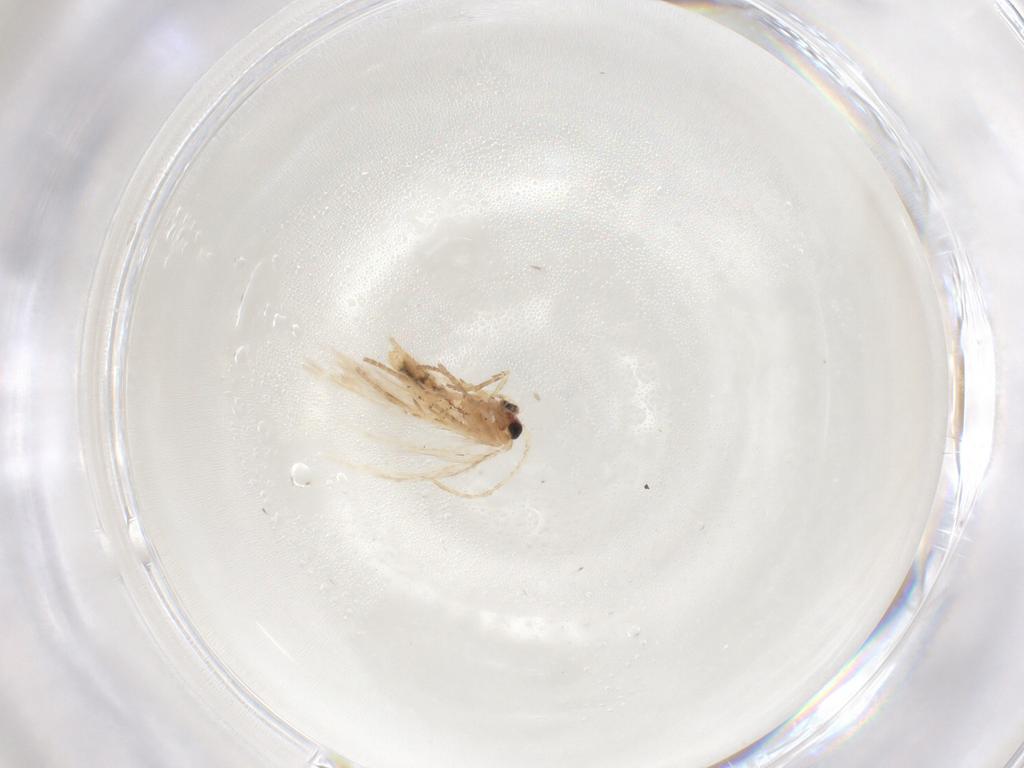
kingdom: Animalia
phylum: Arthropoda
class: Insecta
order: Lepidoptera
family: Nepticulidae
